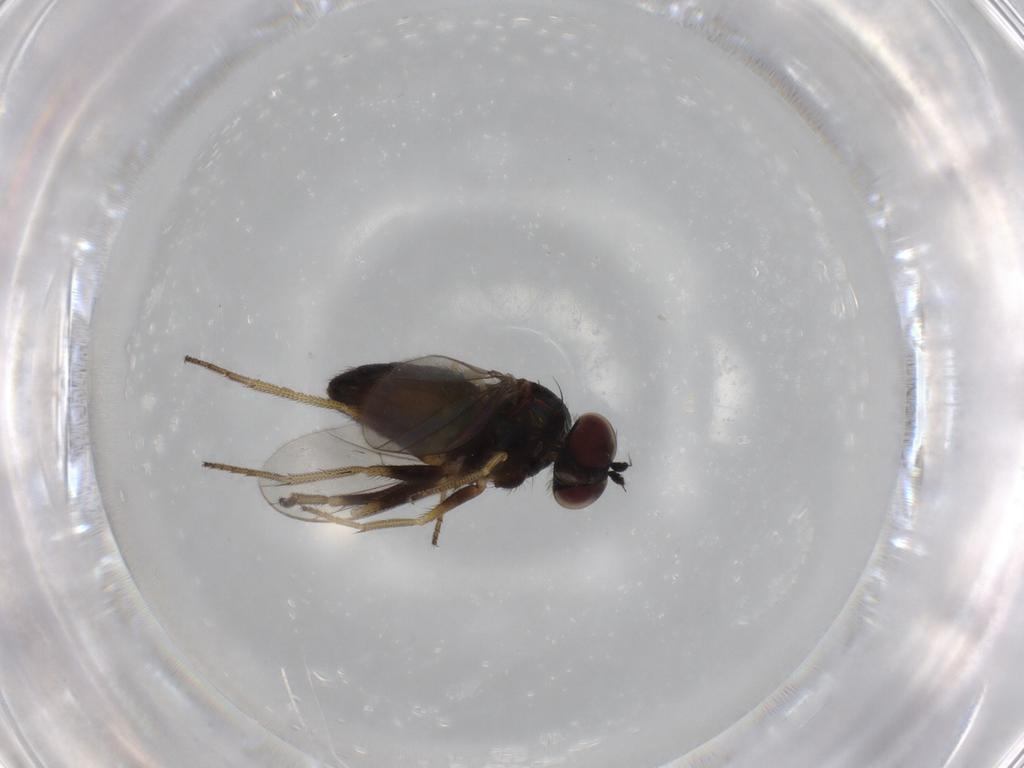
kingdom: Animalia
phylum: Arthropoda
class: Insecta
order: Diptera
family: Dolichopodidae
